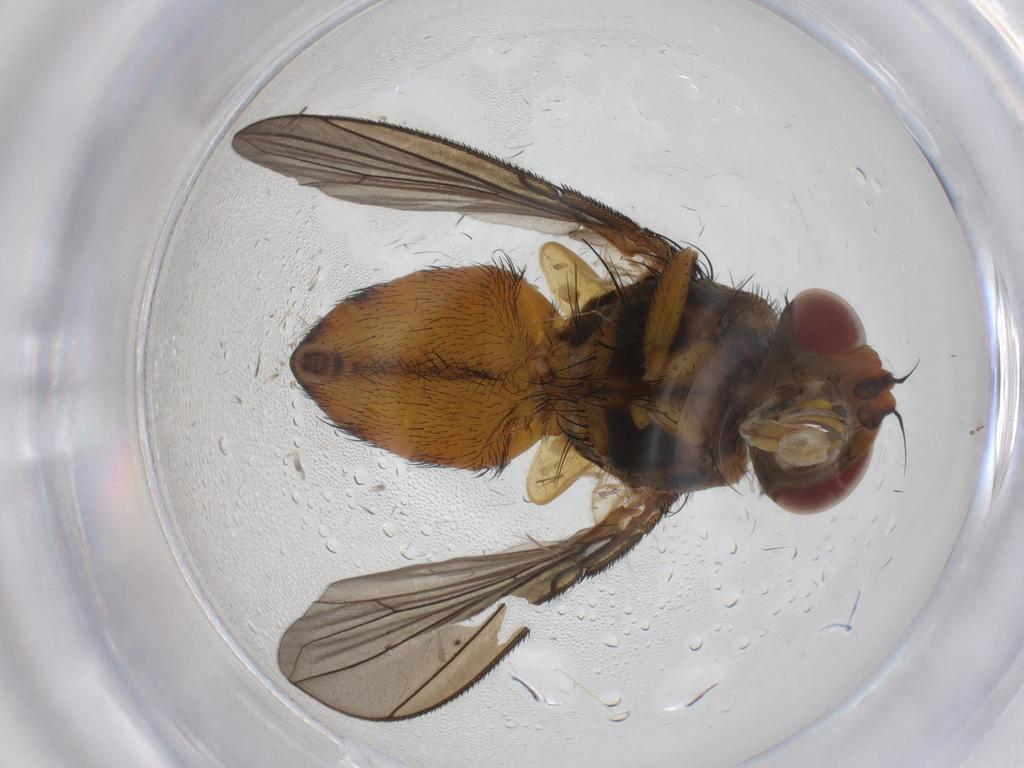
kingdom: Animalia
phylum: Arthropoda
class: Insecta
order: Diptera
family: Tachinidae
